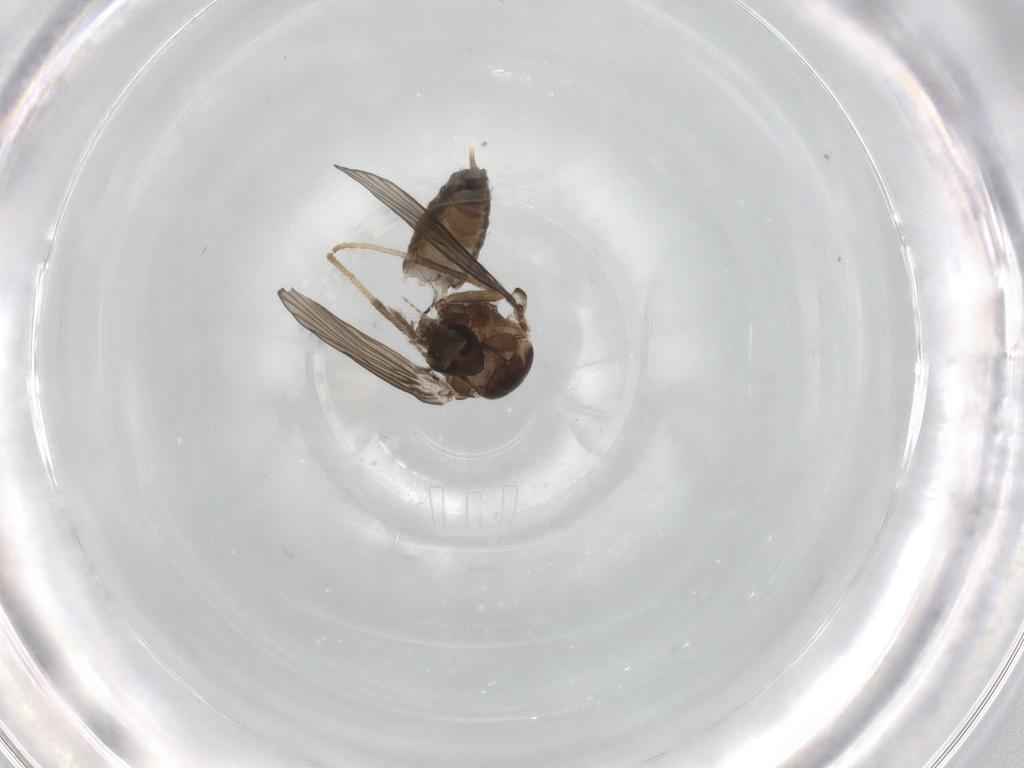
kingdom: Animalia
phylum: Arthropoda
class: Insecta
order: Diptera
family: Psychodidae
